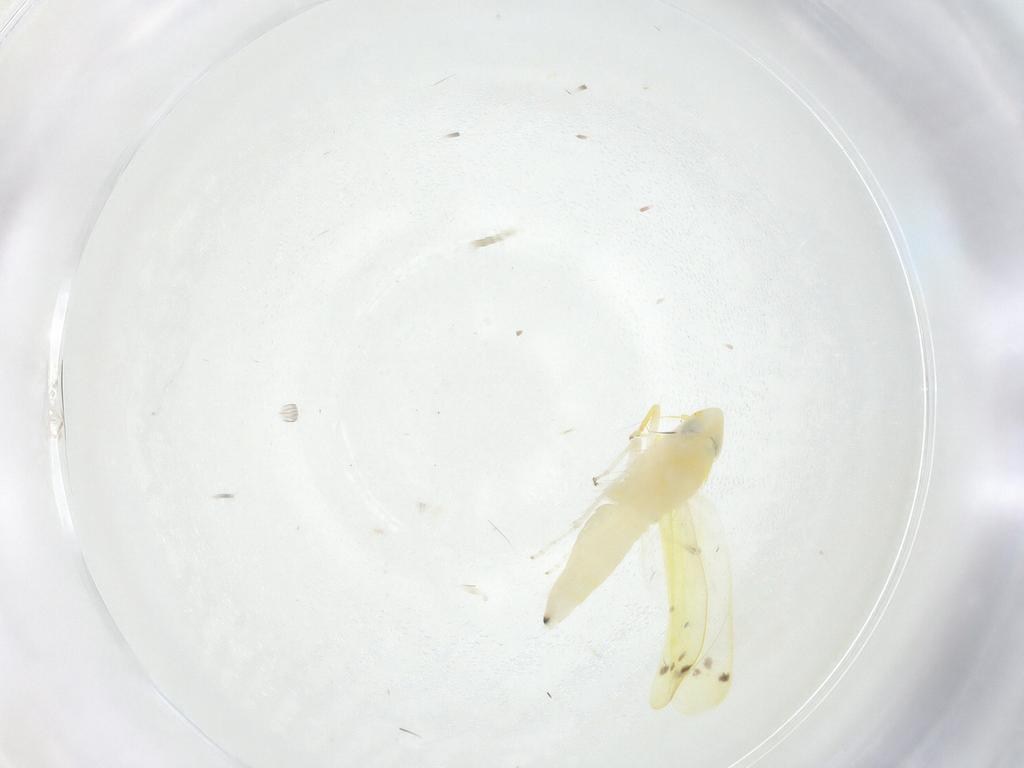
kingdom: Animalia
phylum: Arthropoda
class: Insecta
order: Hemiptera
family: Cicadellidae
